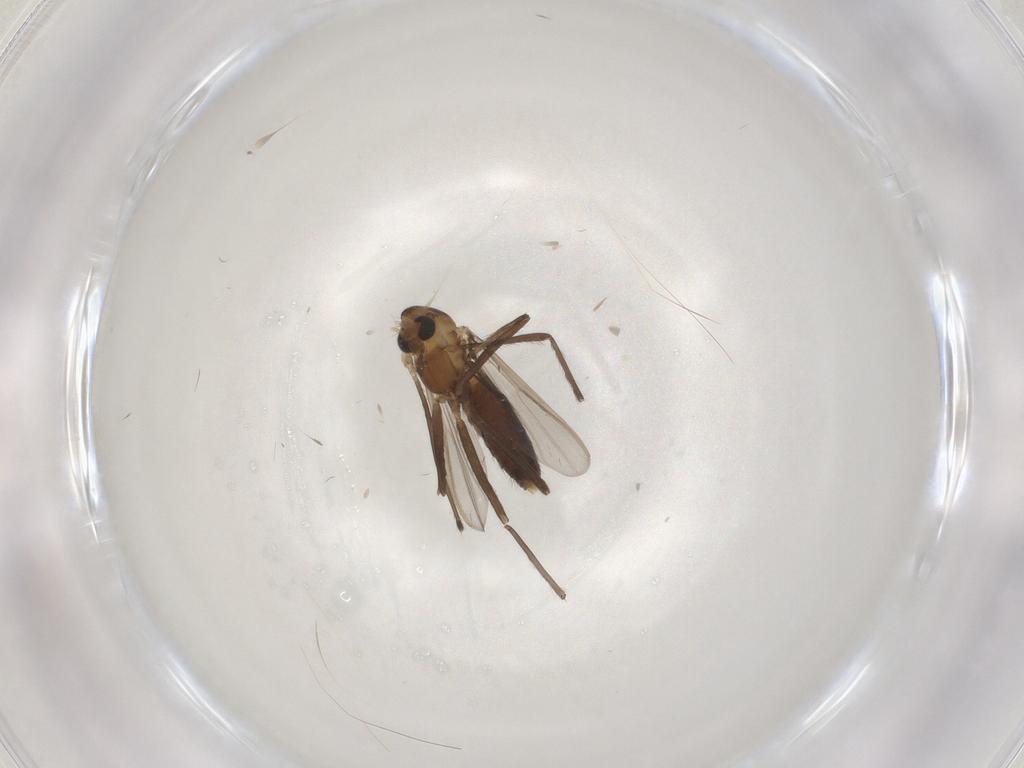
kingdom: Animalia
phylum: Arthropoda
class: Insecta
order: Diptera
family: Chironomidae
